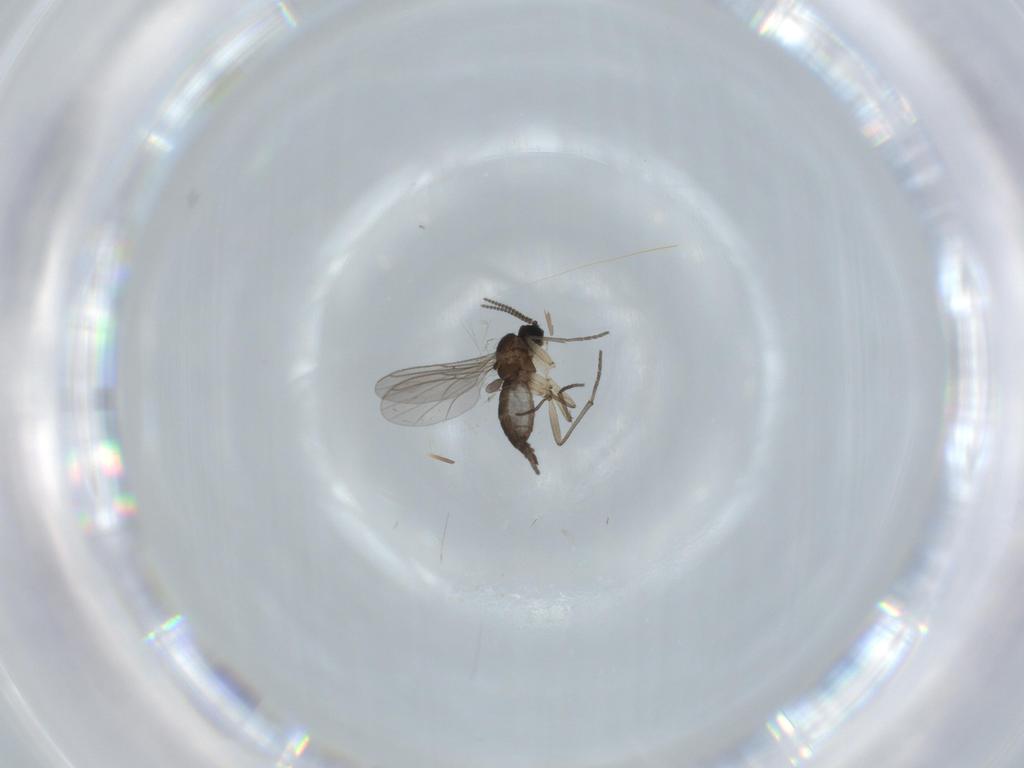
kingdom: Animalia
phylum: Arthropoda
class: Insecta
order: Diptera
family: Sciaridae
